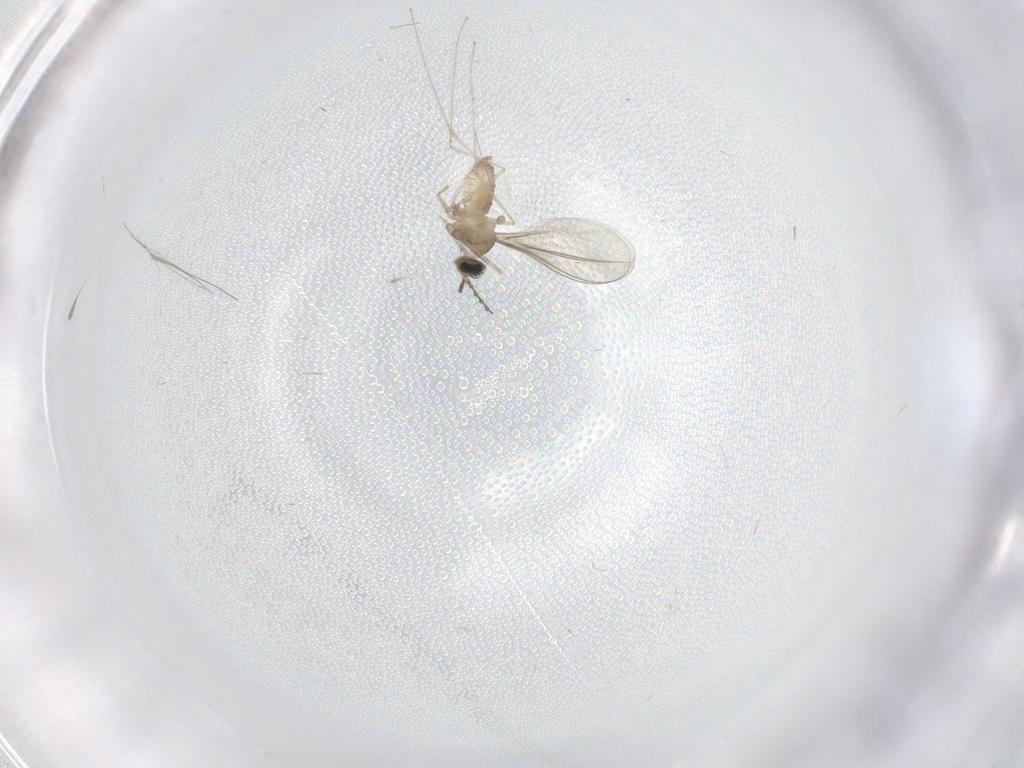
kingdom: Animalia
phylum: Arthropoda
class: Insecta
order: Diptera
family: Cecidomyiidae
